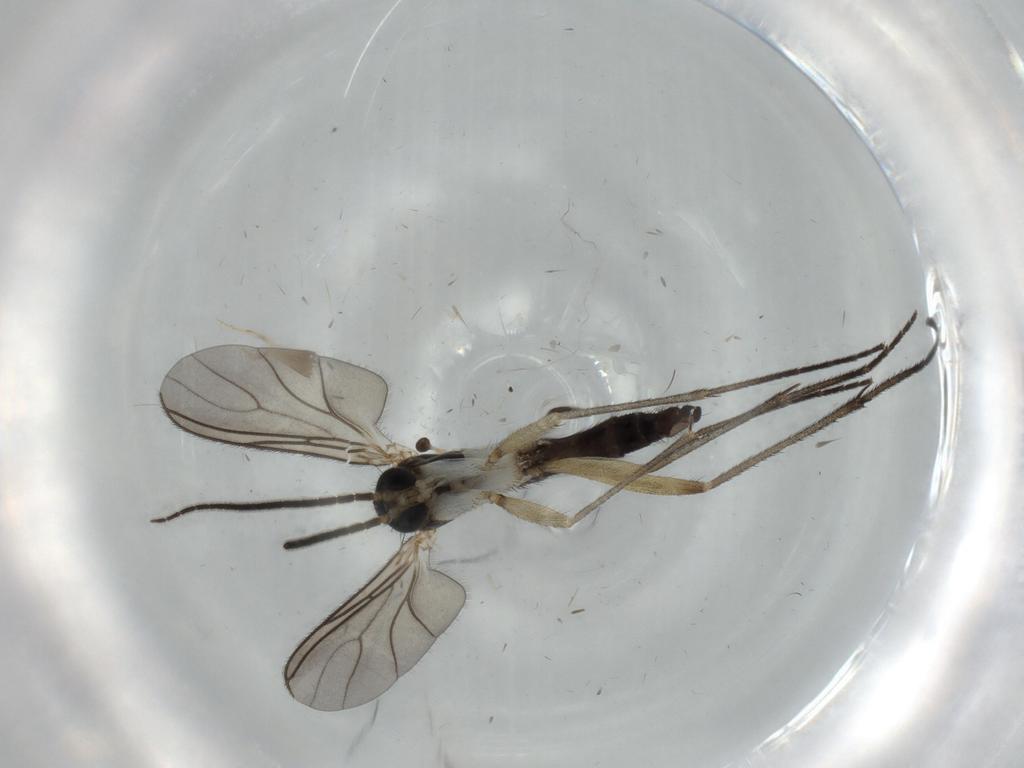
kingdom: Animalia
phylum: Arthropoda
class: Insecta
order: Diptera
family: Sciaridae
